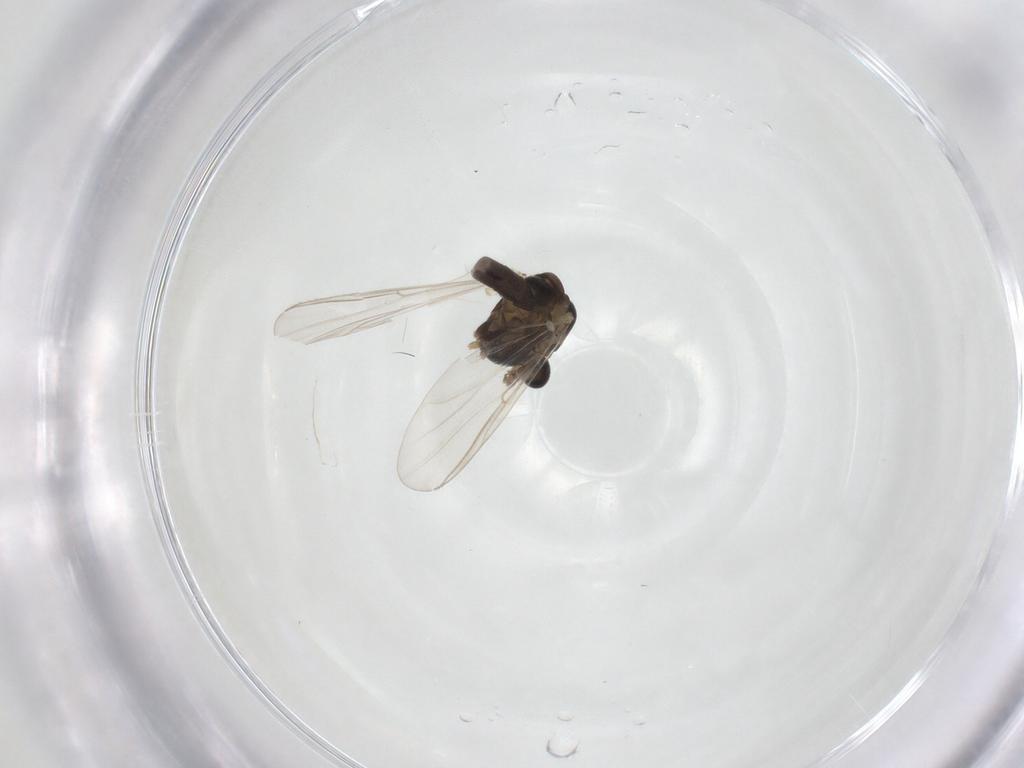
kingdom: Animalia
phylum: Arthropoda
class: Insecta
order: Diptera
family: Chironomidae
